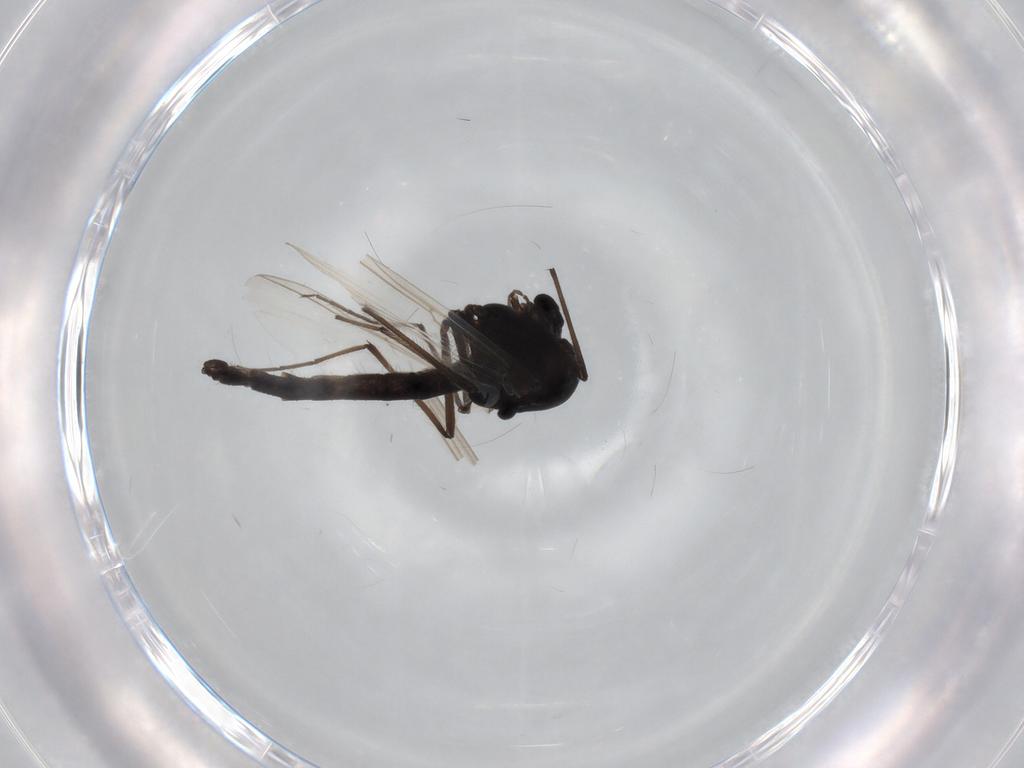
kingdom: Animalia
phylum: Arthropoda
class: Insecta
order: Diptera
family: Chironomidae
